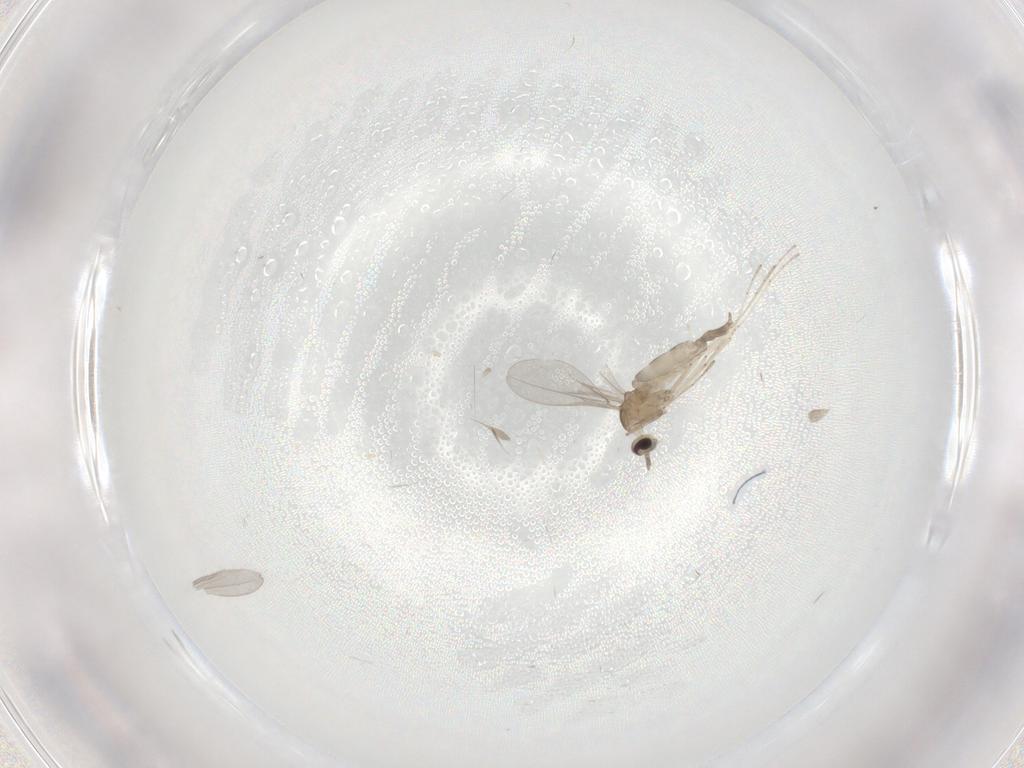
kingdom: Animalia
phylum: Arthropoda
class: Insecta
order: Diptera
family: Cecidomyiidae
